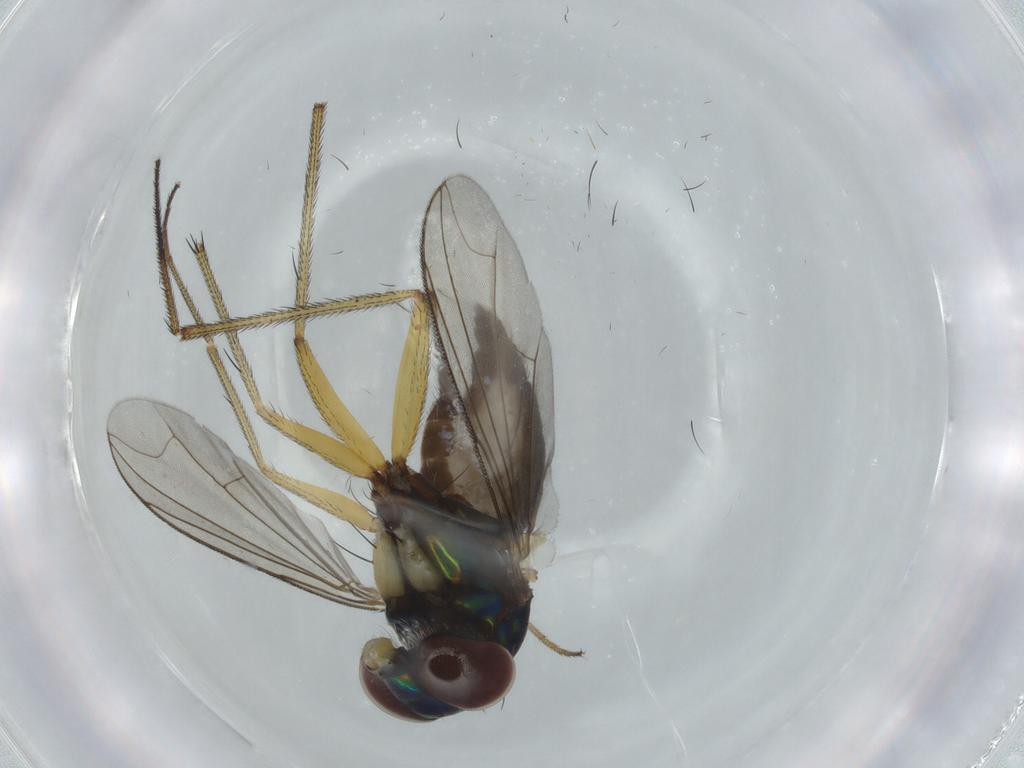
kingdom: Animalia
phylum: Arthropoda
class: Insecta
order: Diptera
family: Dolichopodidae
